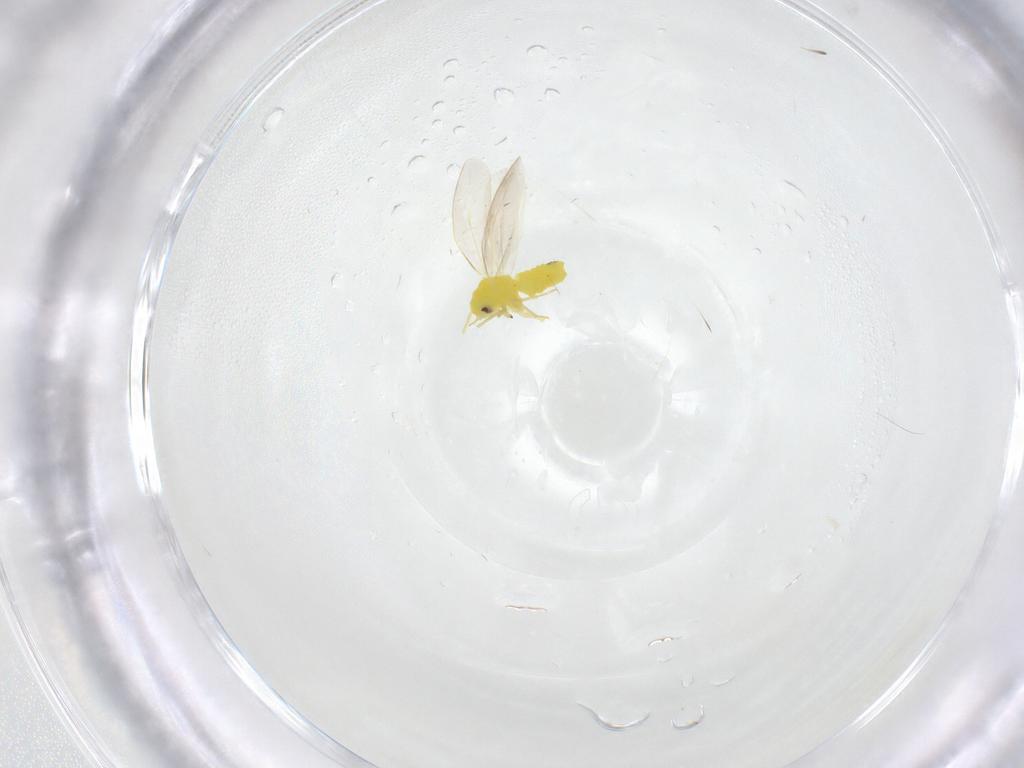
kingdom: Animalia
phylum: Arthropoda
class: Insecta
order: Hemiptera
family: Aleyrodidae
